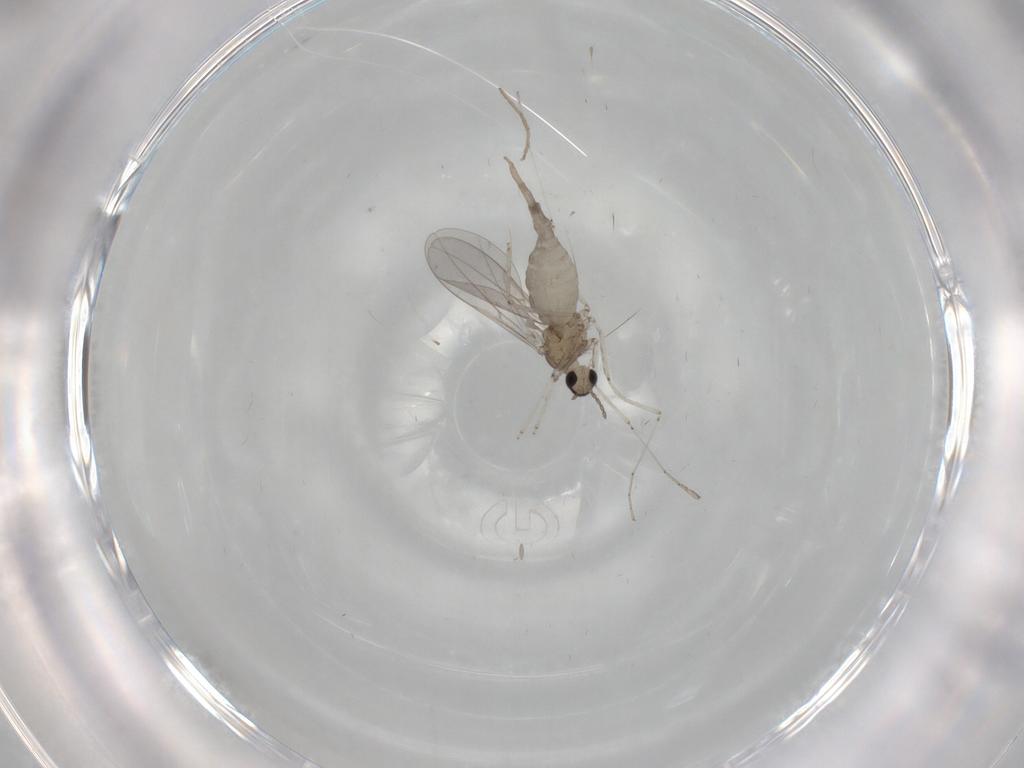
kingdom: Animalia
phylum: Arthropoda
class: Insecta
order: Diptera
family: Cecidomyiidae
